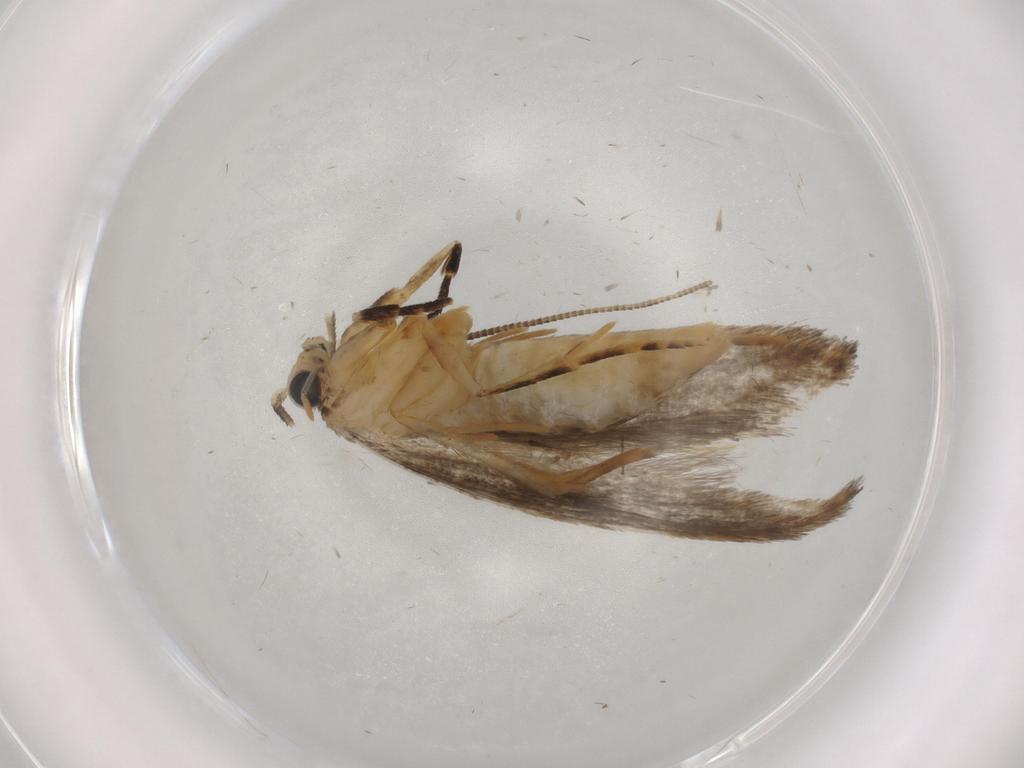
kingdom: Animalia
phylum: Arthropoda
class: Insecta
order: Lepidoptera
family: Tineidae
